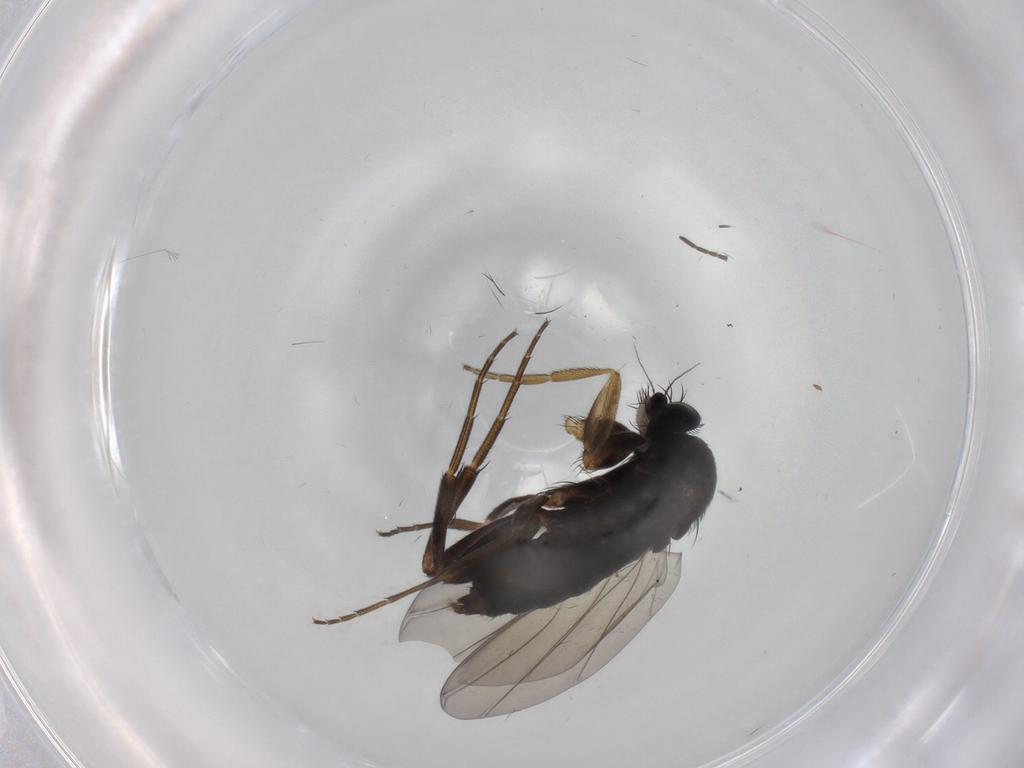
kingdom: Animalia
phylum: Arthropoda
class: Insecta
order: Diptera
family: Phoridae
